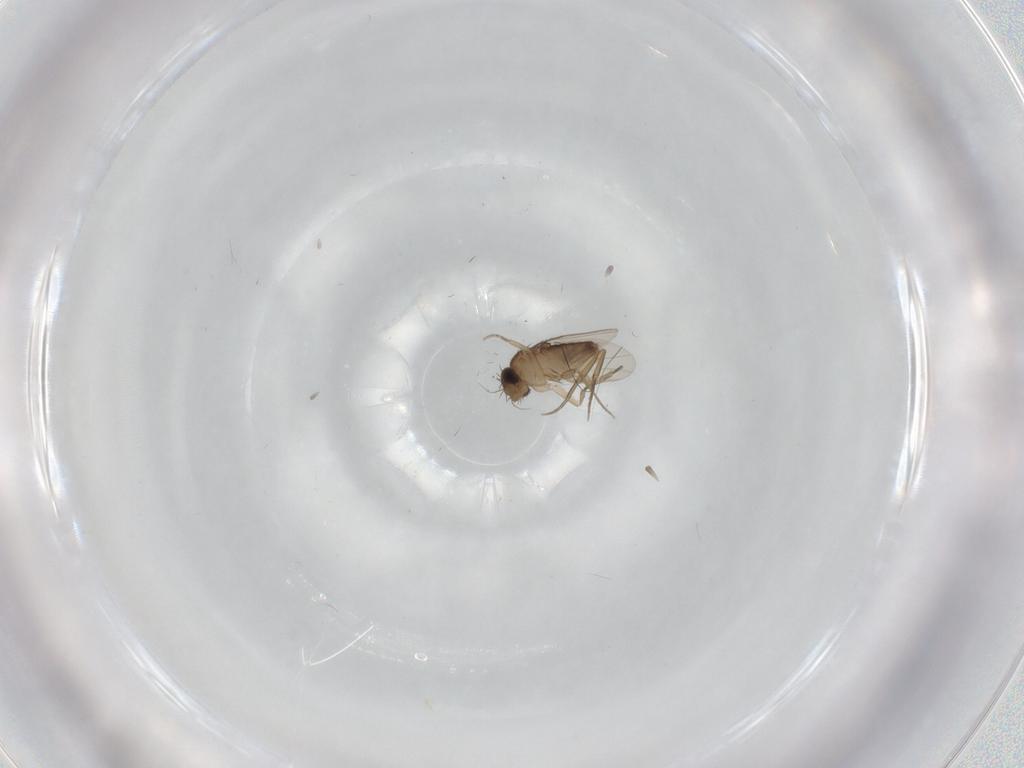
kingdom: Animalia
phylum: Arthropoda
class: Insecta
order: Diptera
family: Phoridae
